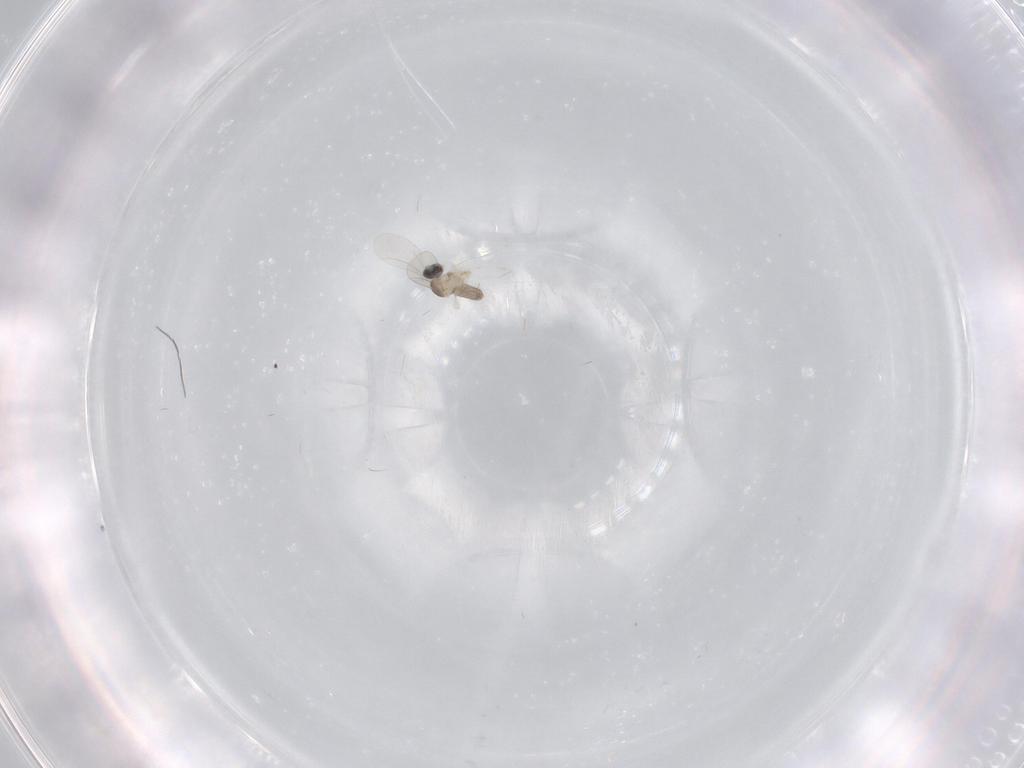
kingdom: Animalia
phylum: Arthropoda
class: Insecta
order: Diptera
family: Cecidomyiidae
